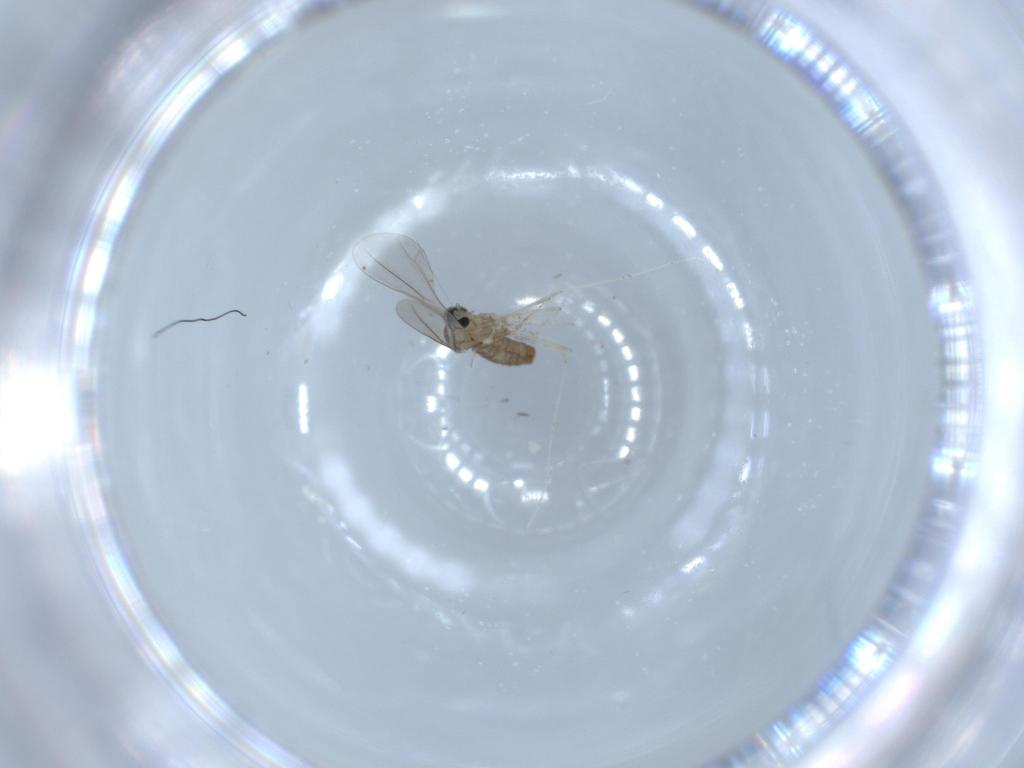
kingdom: Animalia
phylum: Arthropoda
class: Insecta
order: Diptera
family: Cecidomyiidae
